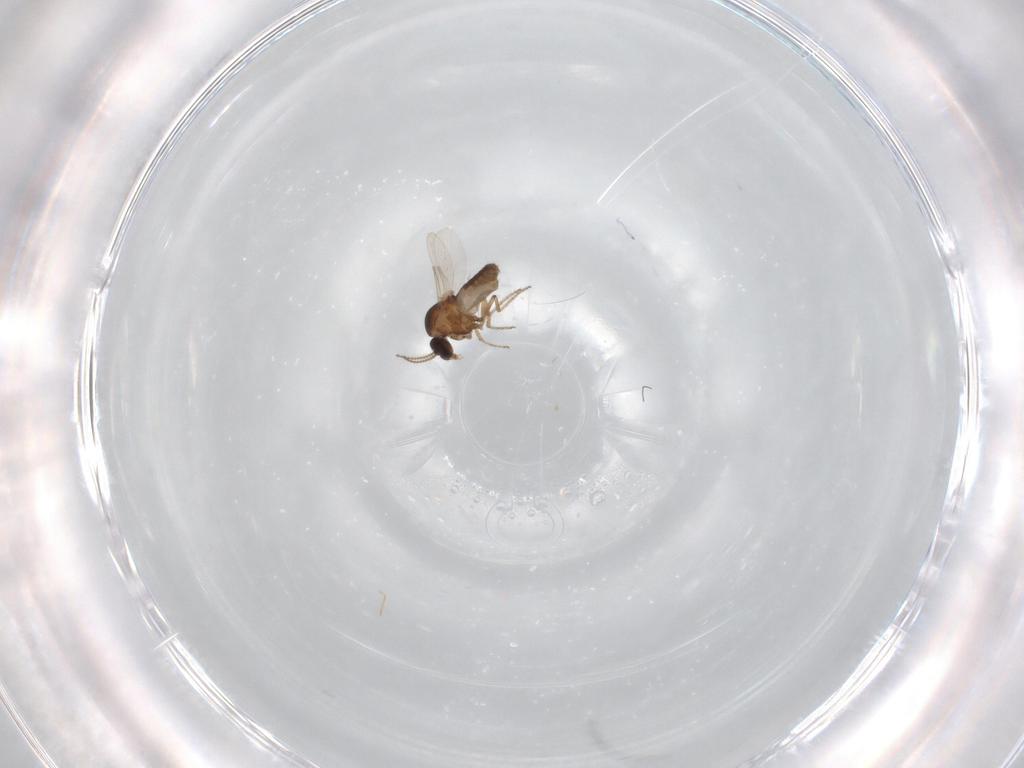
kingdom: Animalia
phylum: Arthropoda
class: Insecta
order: Diptera
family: Ceratopogonidae
